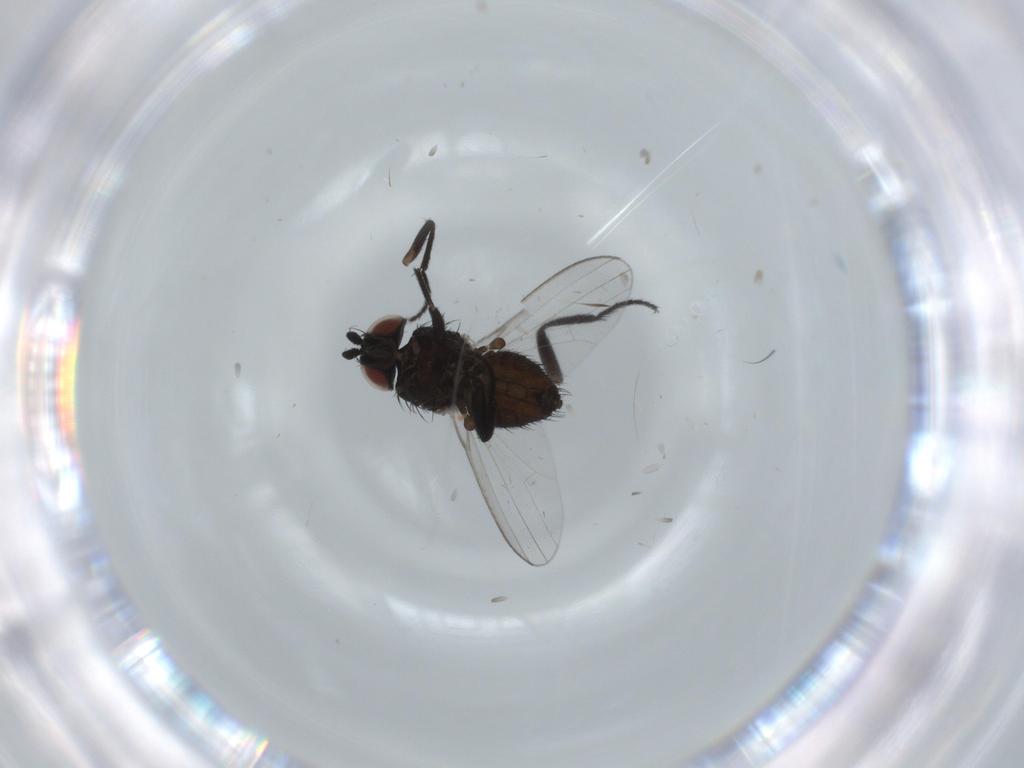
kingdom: Animalia
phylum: Arthropoda
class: Insecta
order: Diptera
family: Milichiidae
